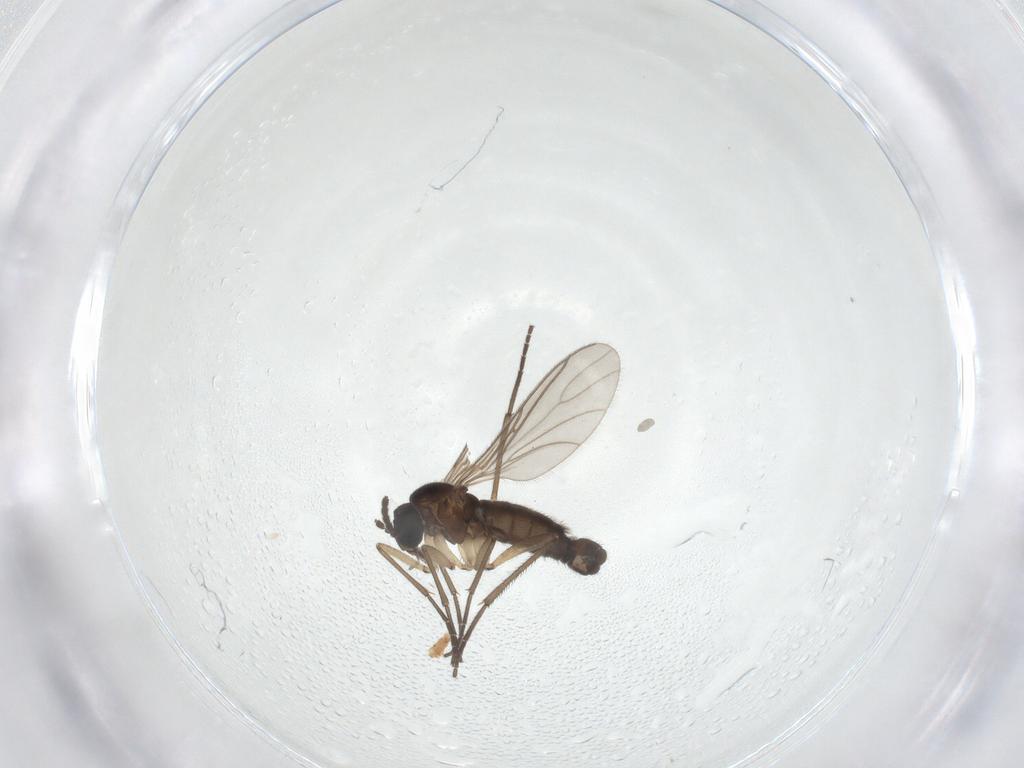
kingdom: Animalia
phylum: Arthropoda
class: Insecta
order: Diptera
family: Sciaridae
